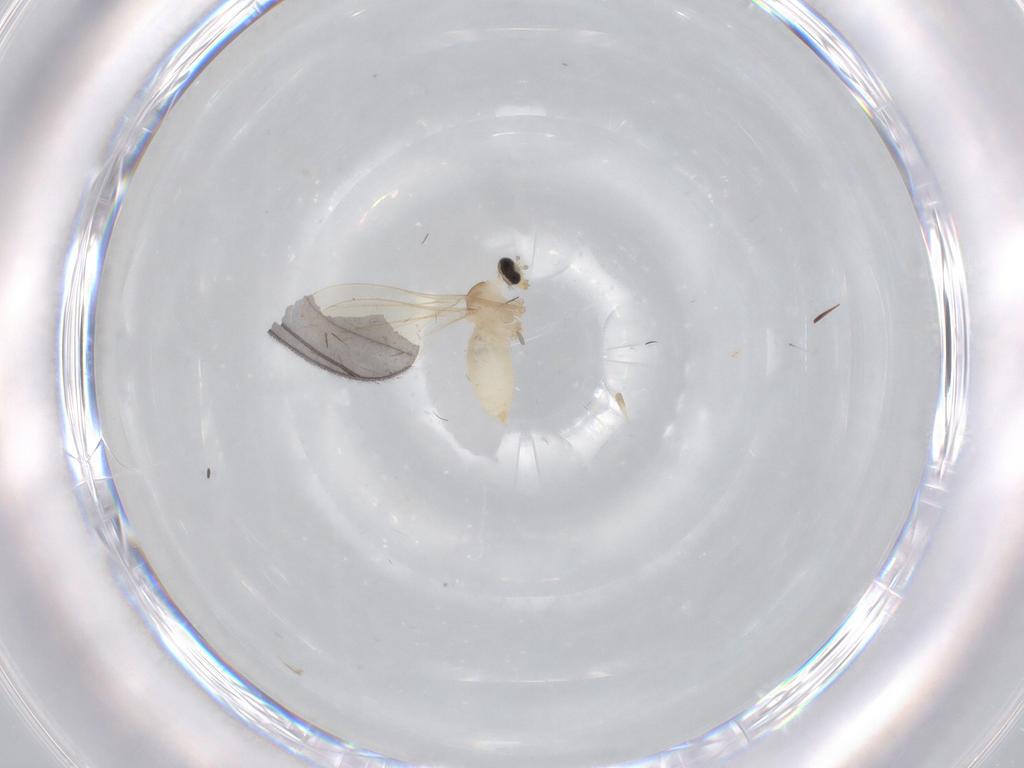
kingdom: Animalia
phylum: Arthropoda
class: Insecta
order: Diptera
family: Cecidomyiidae
